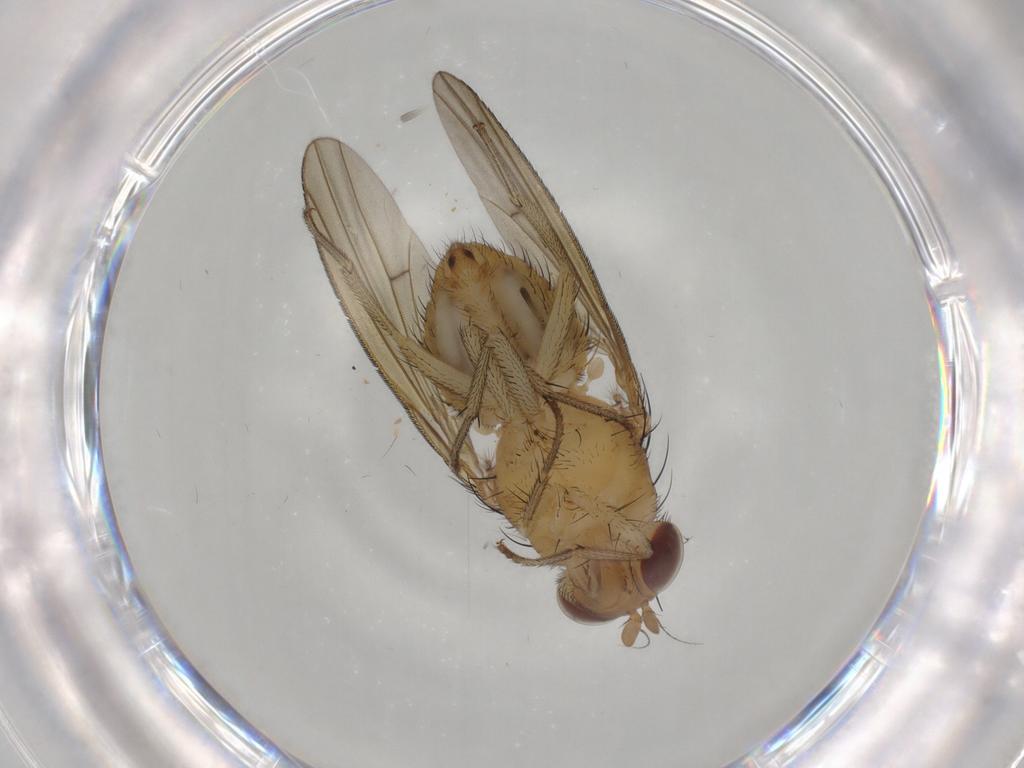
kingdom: Animalia
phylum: Arthropoda
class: Insecta
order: Diptera
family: Phoridae
